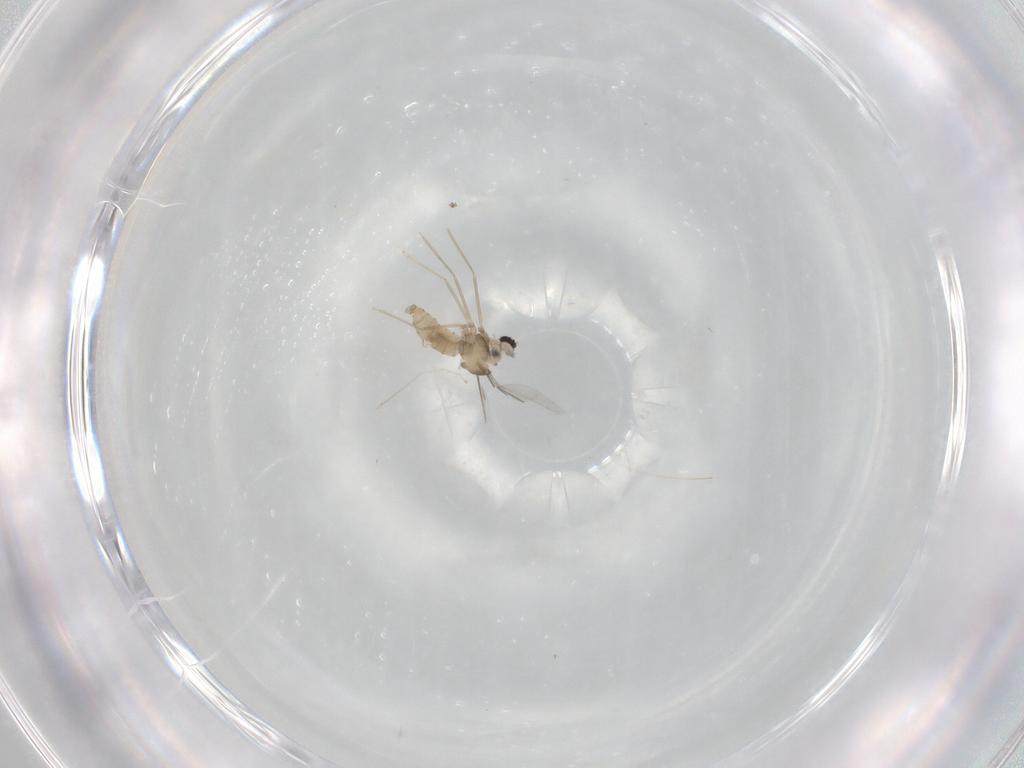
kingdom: Animalia
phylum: Arthropoda
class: Insecta
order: Diptera
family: Cecidomyiidae
